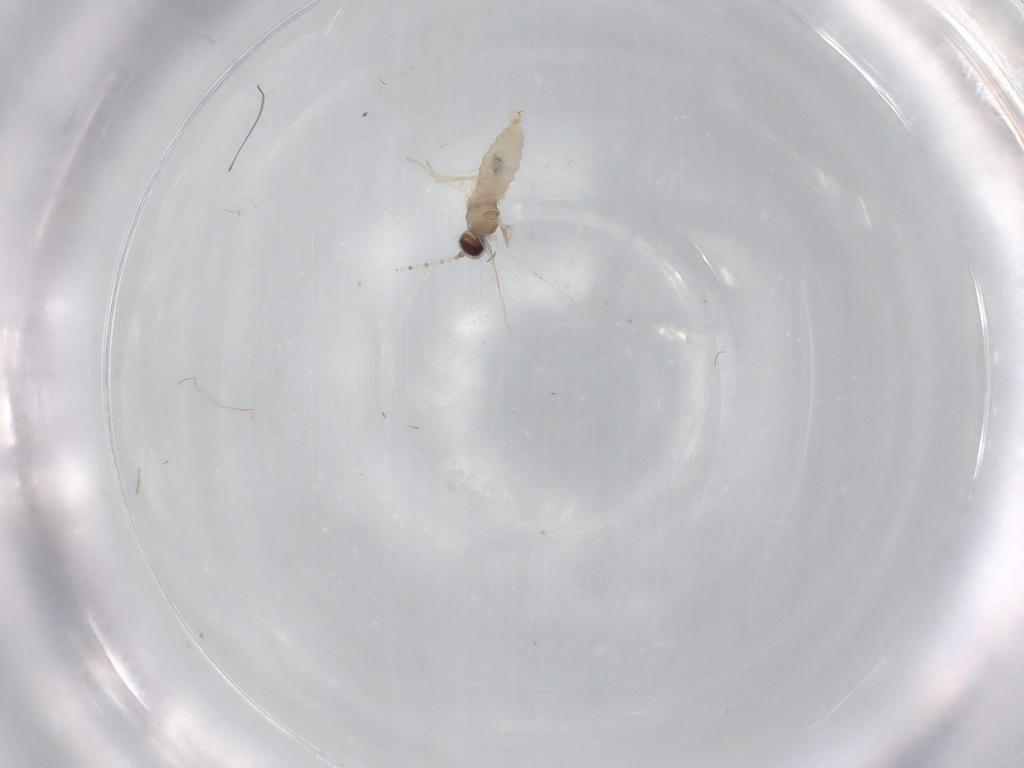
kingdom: Animalia
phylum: Arthropoda
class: Insecta
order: Diptera
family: Cecidomyiidae
